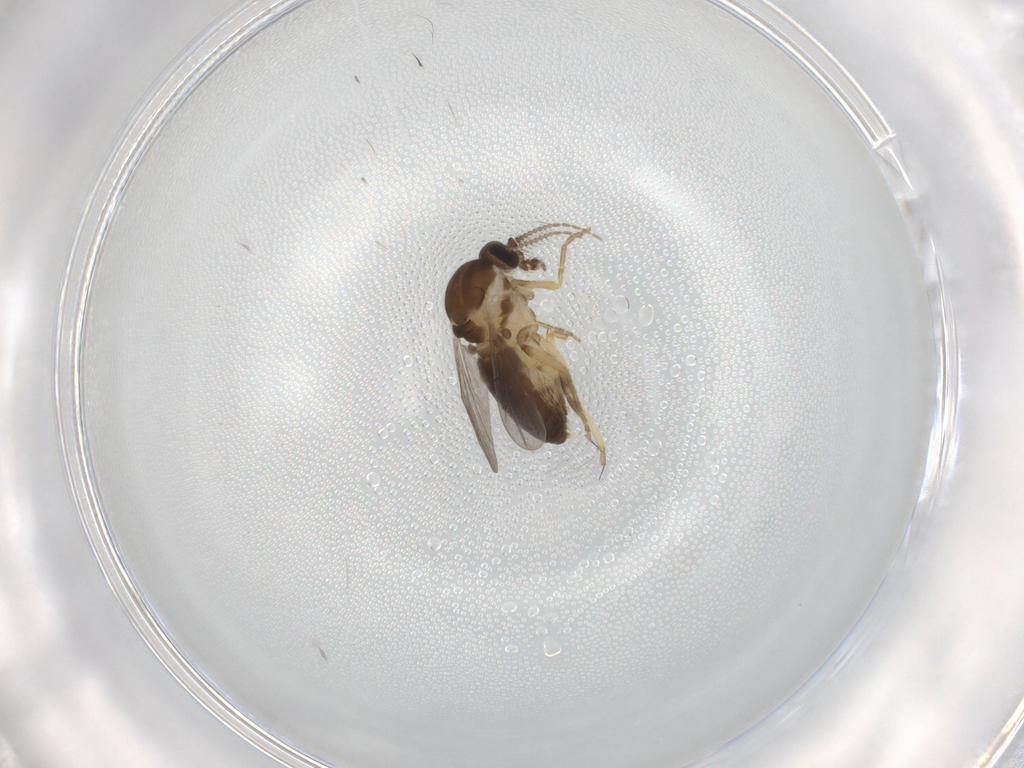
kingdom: Animalia
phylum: Arthropoda
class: Insecta
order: Diptera
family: Ceratopogonidae
